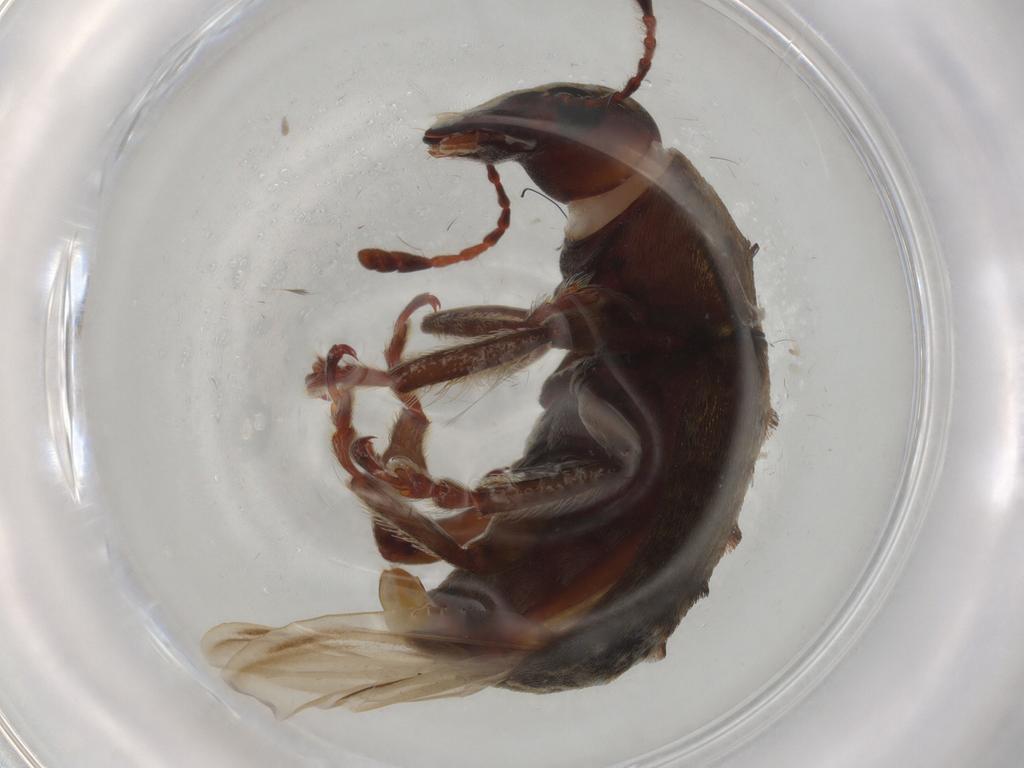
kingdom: Animalia
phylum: Arthropoda
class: Insecta
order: Coleoptera
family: Anthribidae
